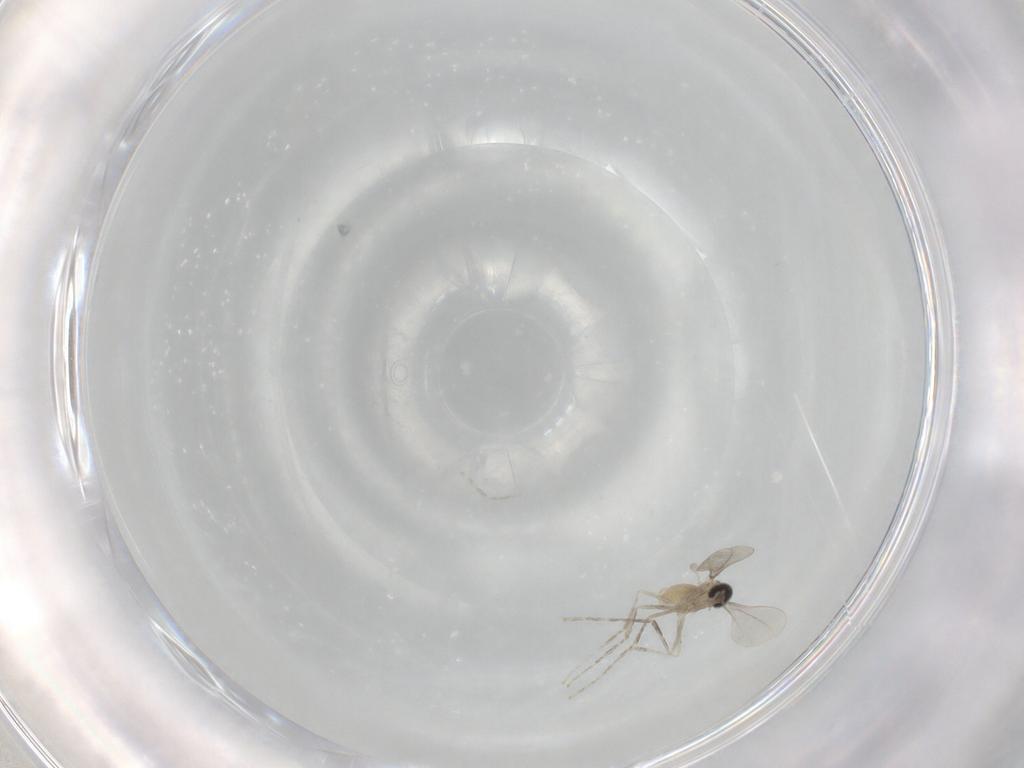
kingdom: Animalia
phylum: Arthropoda
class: Insecta
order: Diptera
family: Cecidomyiidae
